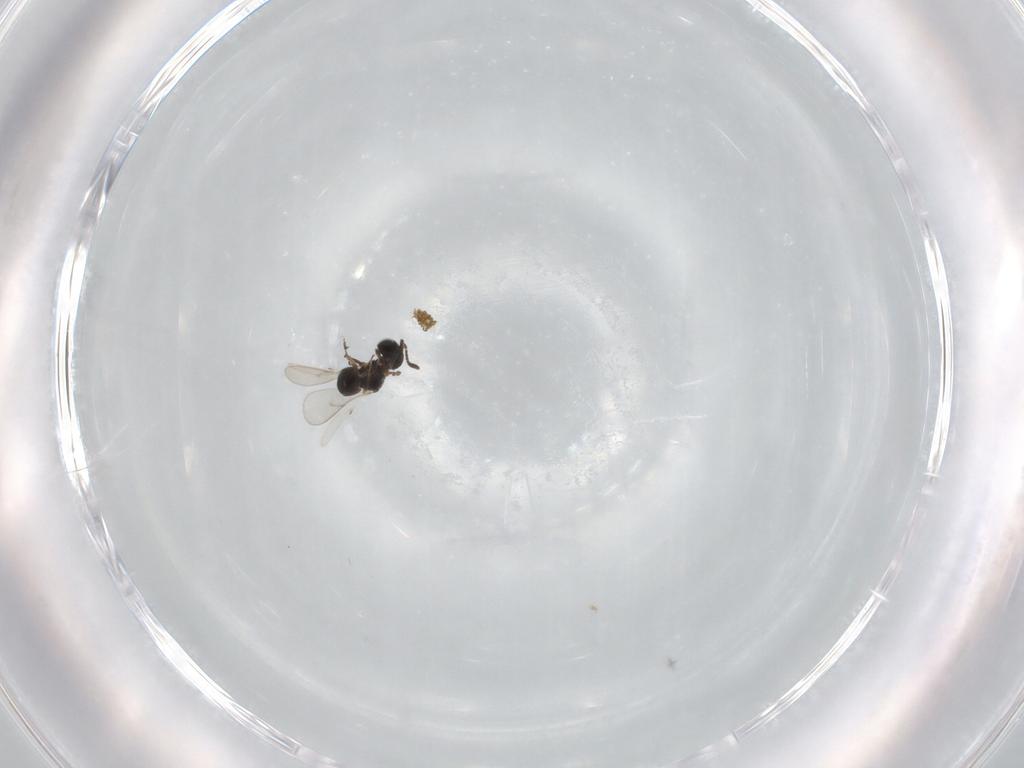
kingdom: Animalia
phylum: Arthropoda
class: Insecta
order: Hymenoptera
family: Scelionidae
